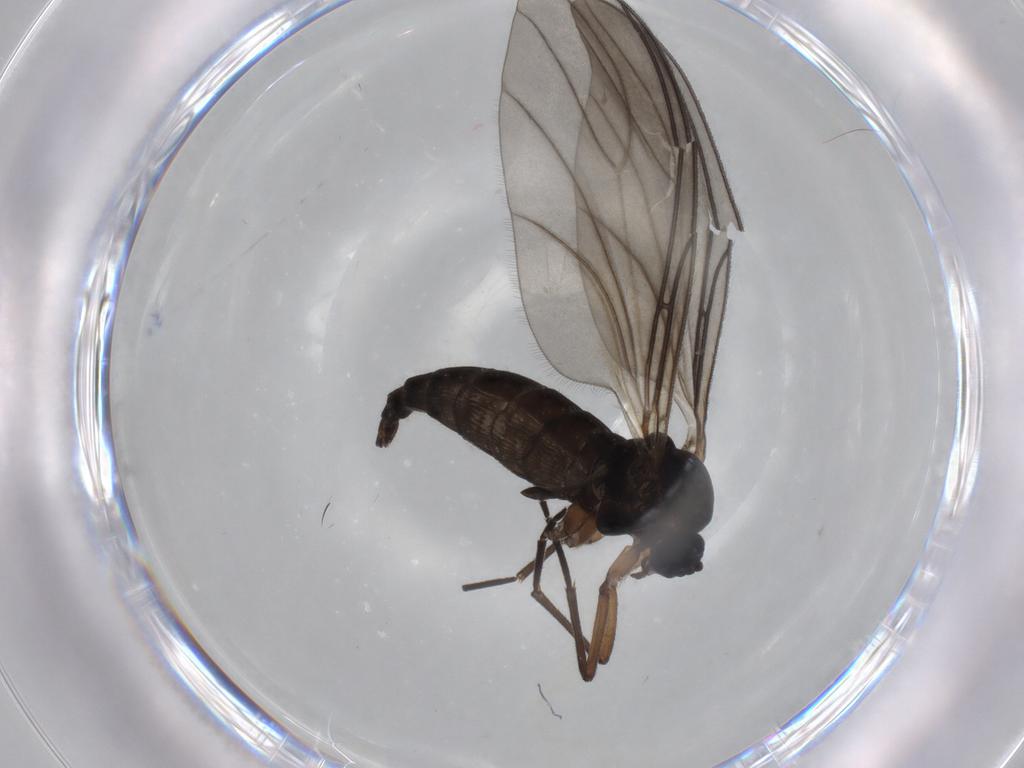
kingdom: Animalia
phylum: Arthropoda
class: Insecta
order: Diptera
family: Sciaridae
